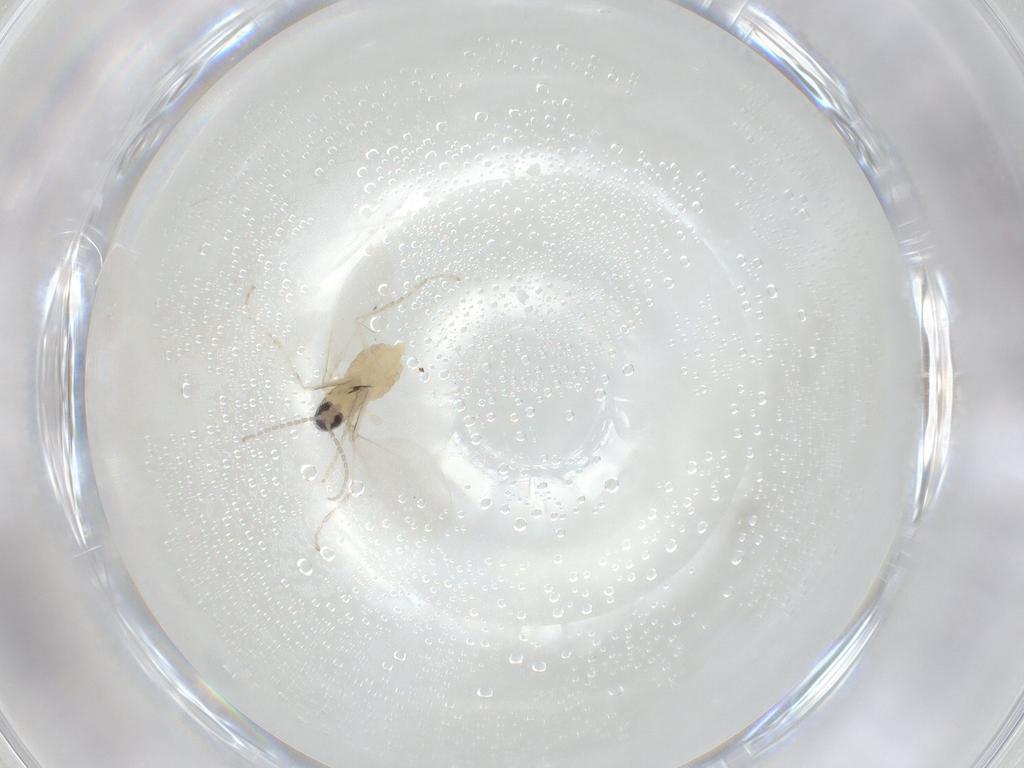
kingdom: Animalia
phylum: Arthropoda
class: Insecta
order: Diptera
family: Cecidomyiidae
